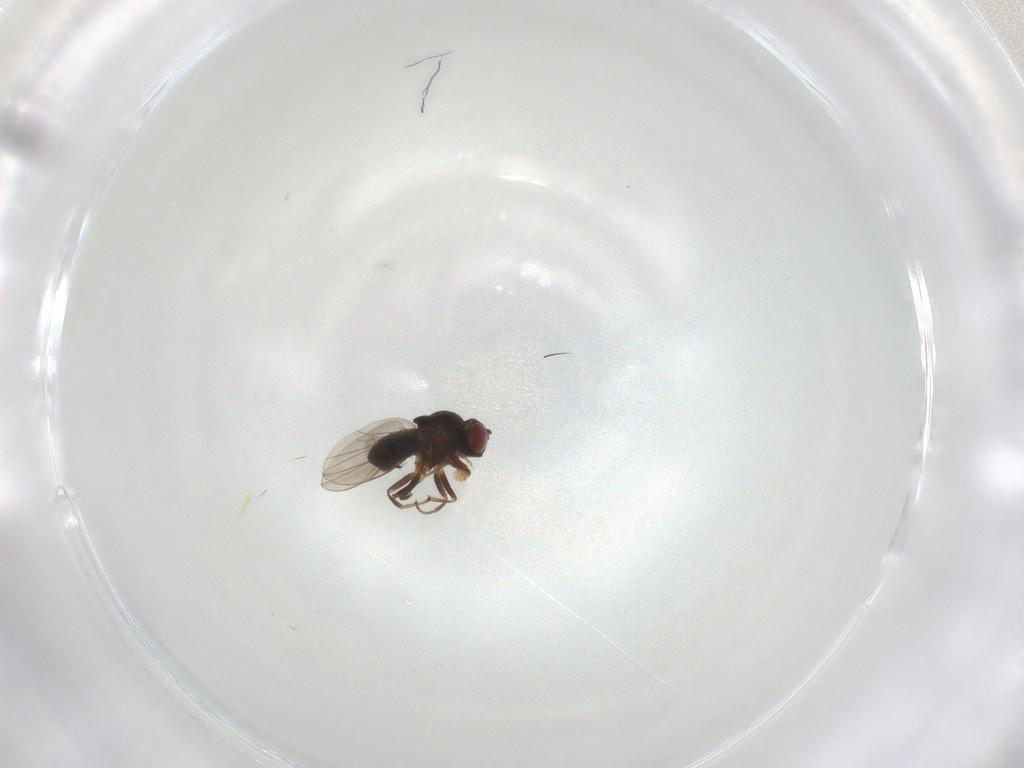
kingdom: Animalia
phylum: Arthropoda
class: Insecta
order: Diptera
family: Ephydridae
